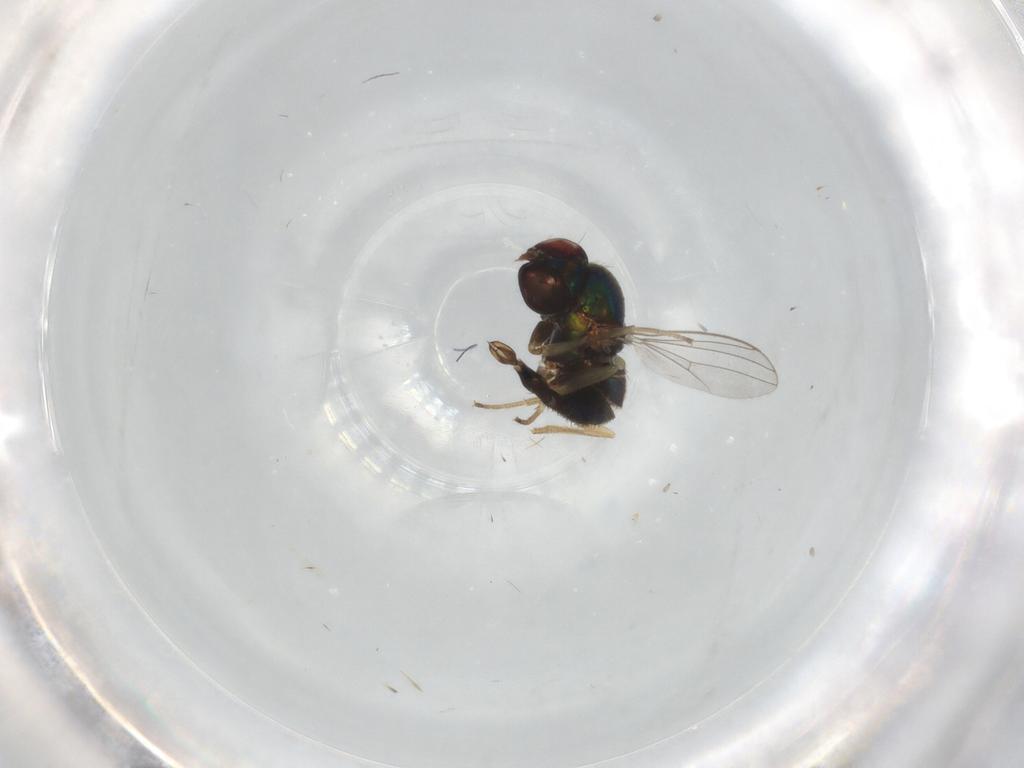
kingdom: Animalia
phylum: Arthropoda
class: Insecta
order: Diptera
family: Dolichopodidae
